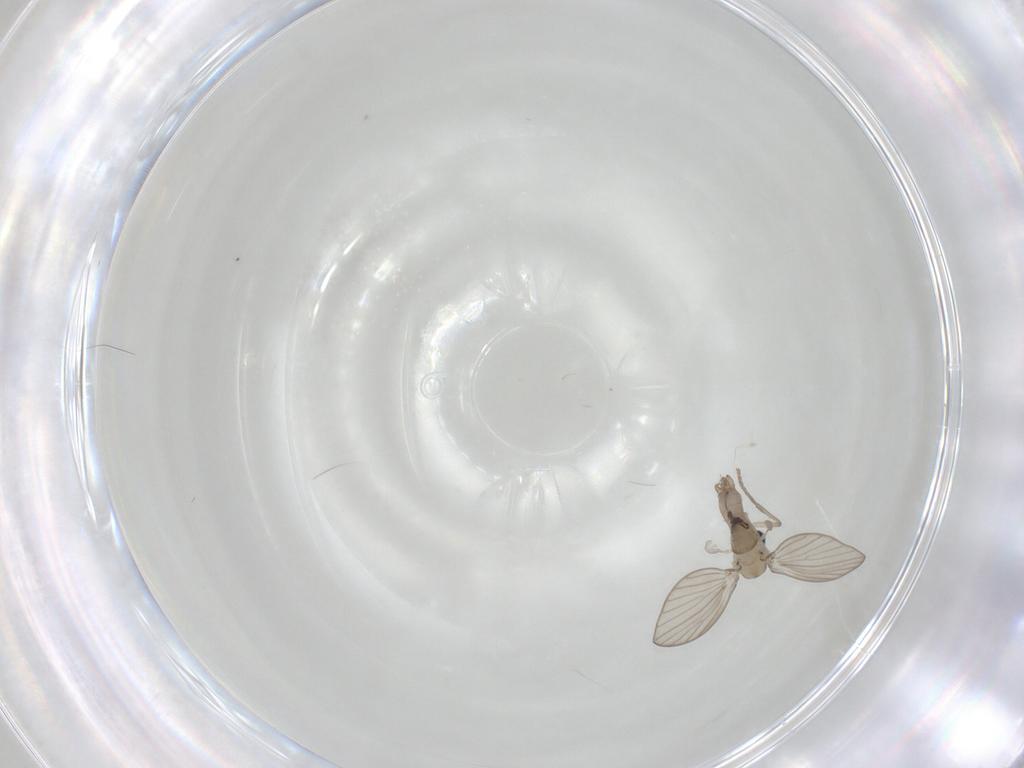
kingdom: Animalia
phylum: Arthropoda
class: Insecta
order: Diptera
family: Psychodidae
